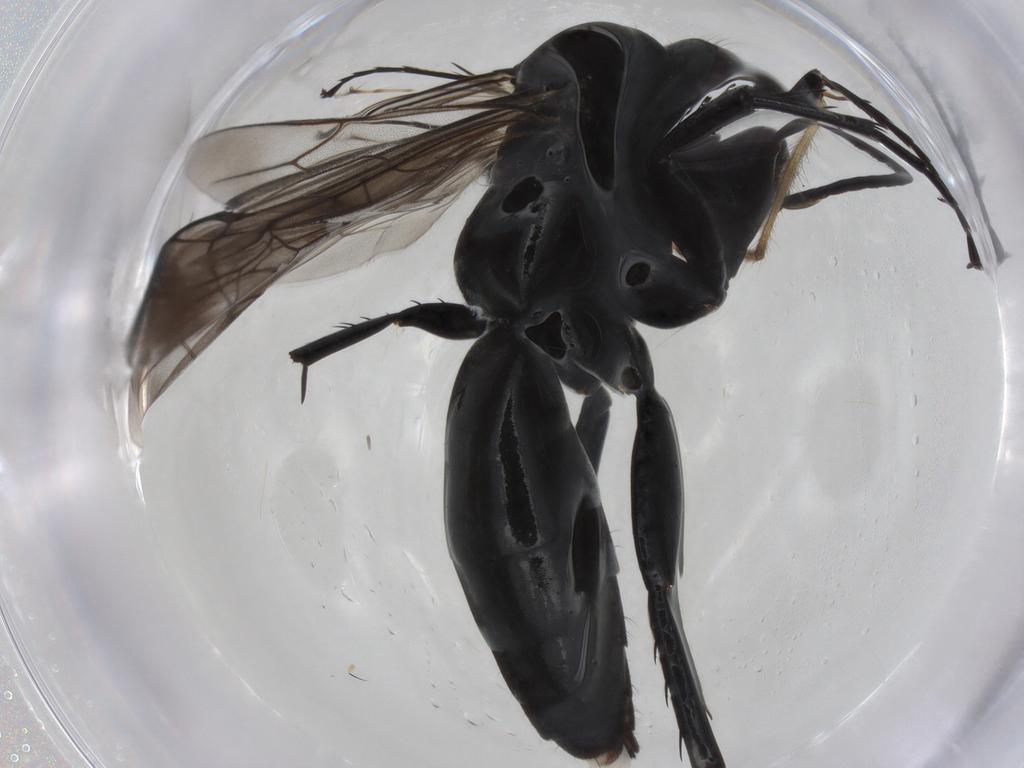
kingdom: Animalia
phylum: Arthropoda
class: Insecta
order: Hymenoptera
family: Pompilidae
